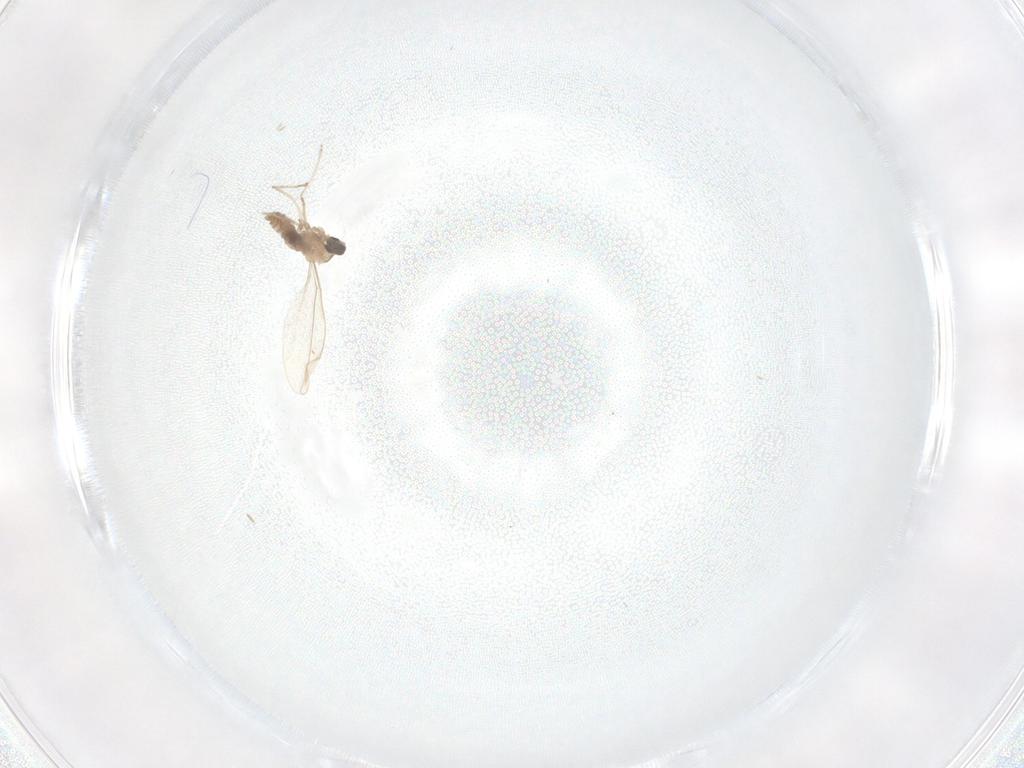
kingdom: Animalia
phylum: Arthropoda
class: Insecta
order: Diptera
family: Cecidomyiidae
